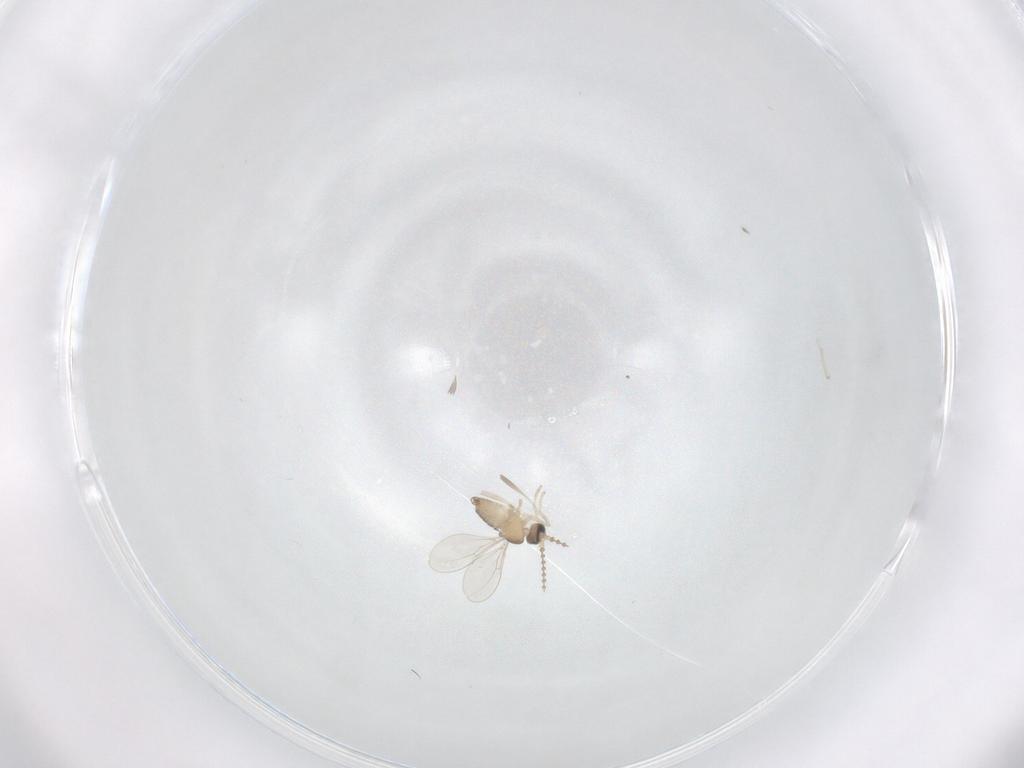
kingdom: Animalia
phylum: Arthropoda
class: Insecta
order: Diptera
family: Cecidomyiidae
